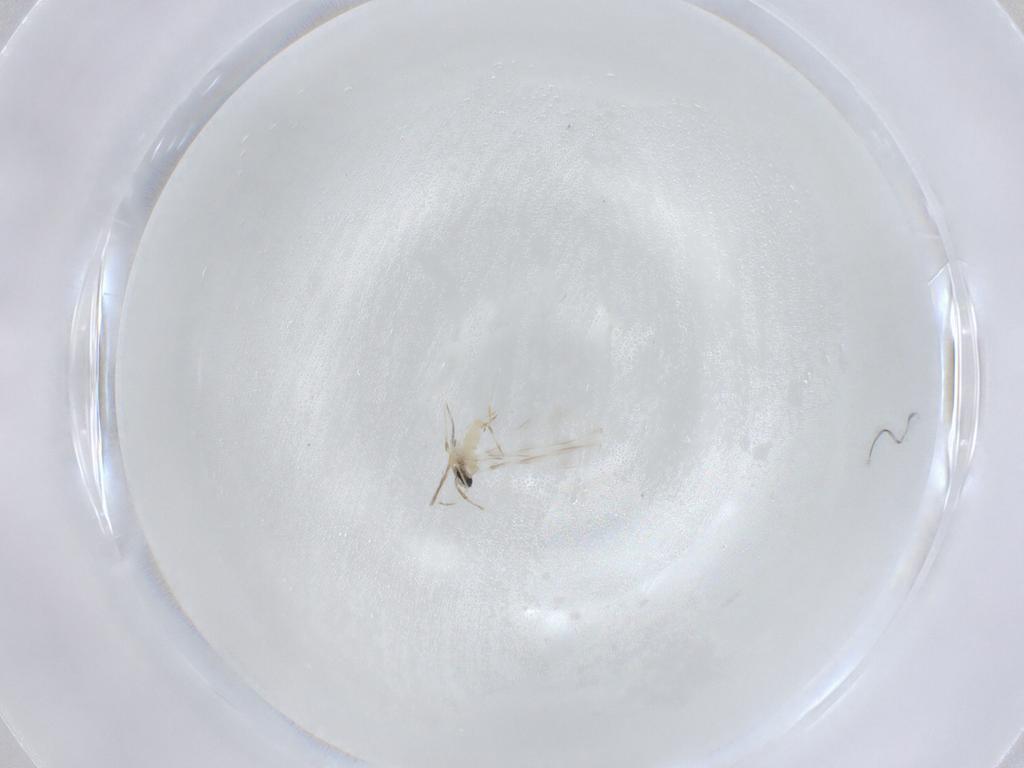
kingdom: Animalia
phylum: Arthropoda
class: Insecta
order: Diptera
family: Cecidomyiidae
